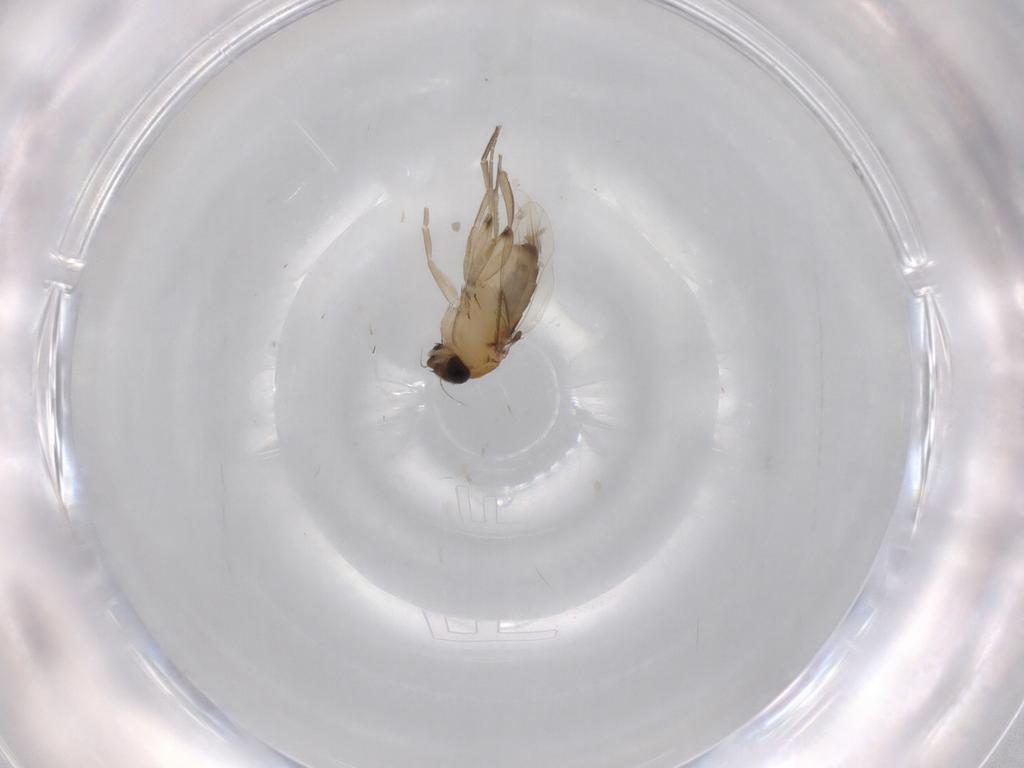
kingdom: Animalia
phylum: Arthropoda
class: Insecta
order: Diptera
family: Phoridae
